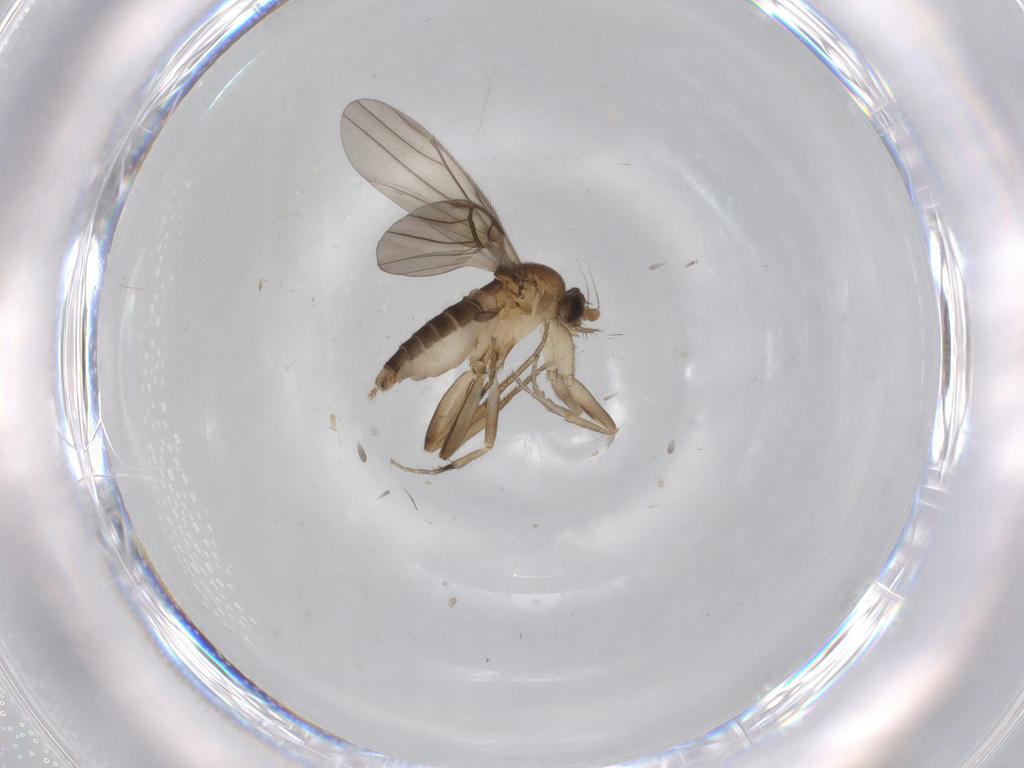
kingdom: Animalia
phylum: Arthropoda
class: Insecta
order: Diptera
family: Phoridae
